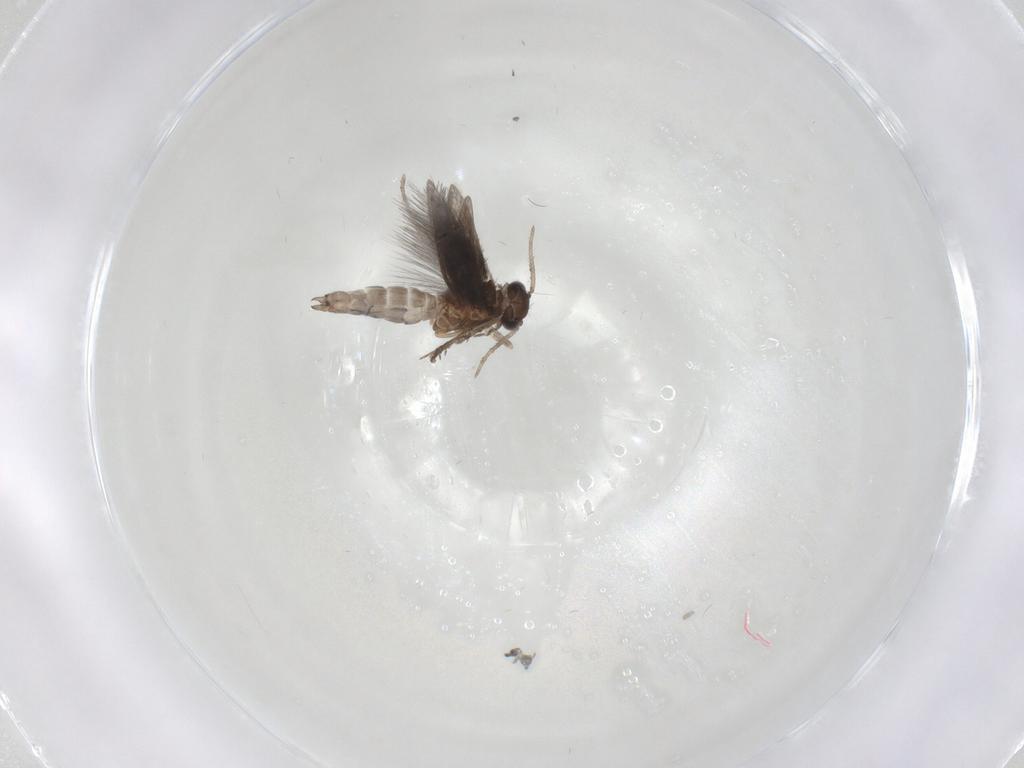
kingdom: Animalia
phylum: Arthropoda
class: Insecta
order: Trichoptera
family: Hydroptilidae
